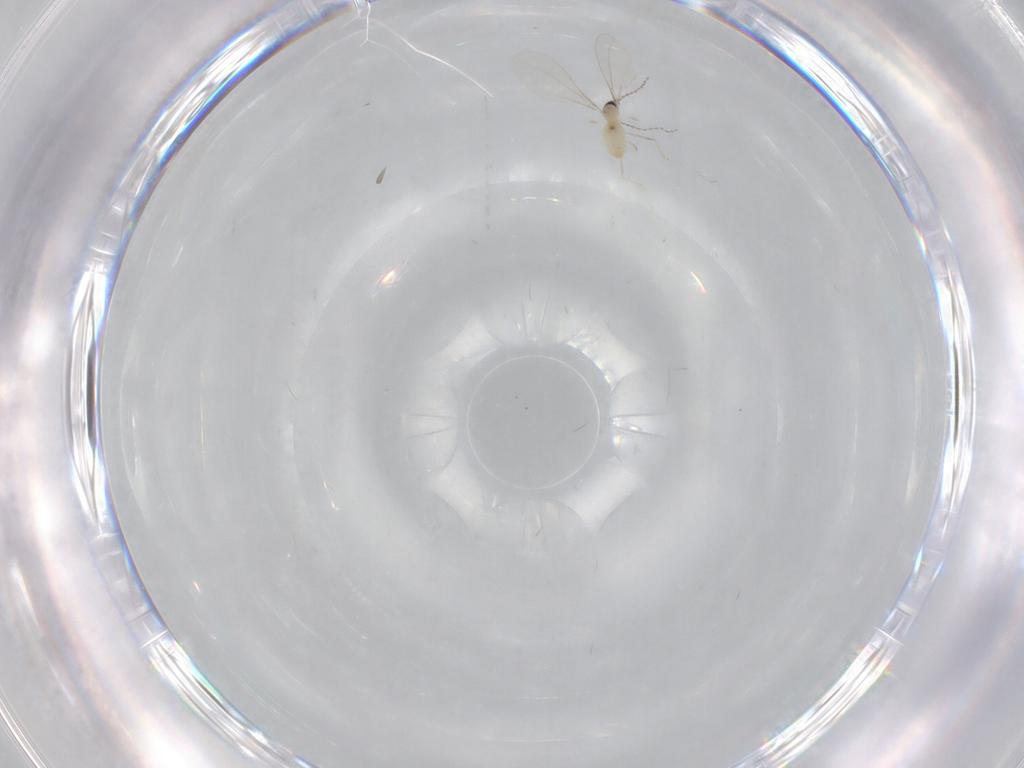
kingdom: Animalia
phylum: Arthropoda
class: Insecta
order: Diptera
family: Cecidomyiidae
